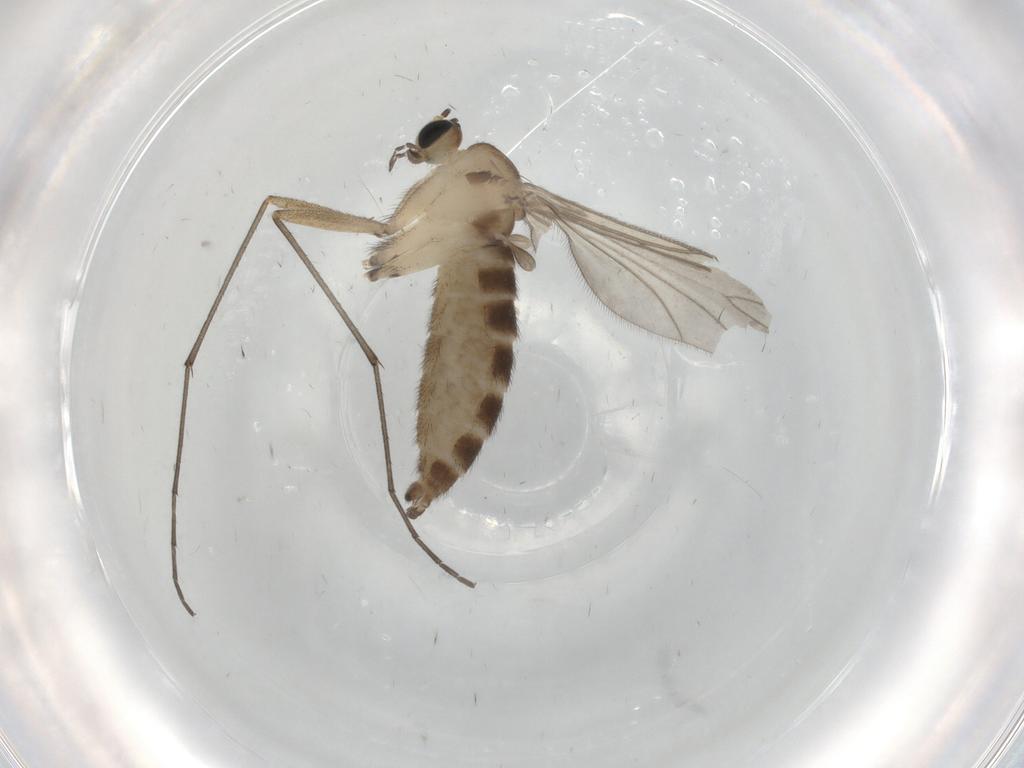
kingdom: Animalia
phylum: Arthropoda
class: Insecta
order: Diptera
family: Sciaridae
